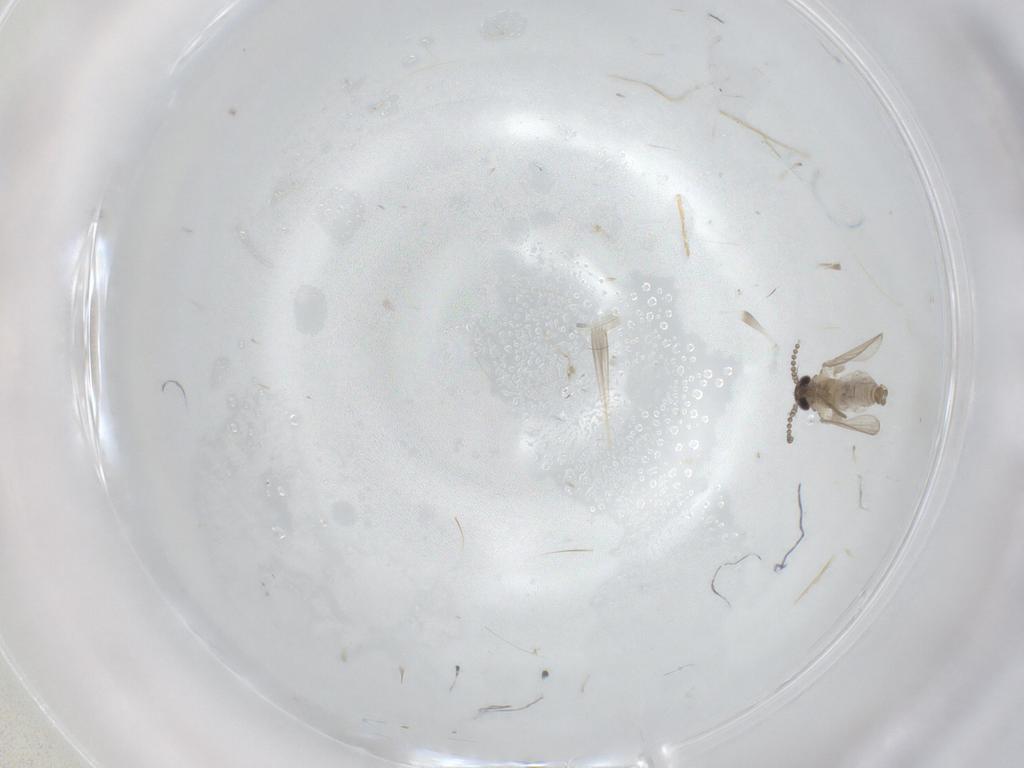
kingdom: Animalia
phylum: Arthropoda
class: Insecta
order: Diptera
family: Psychodidae
